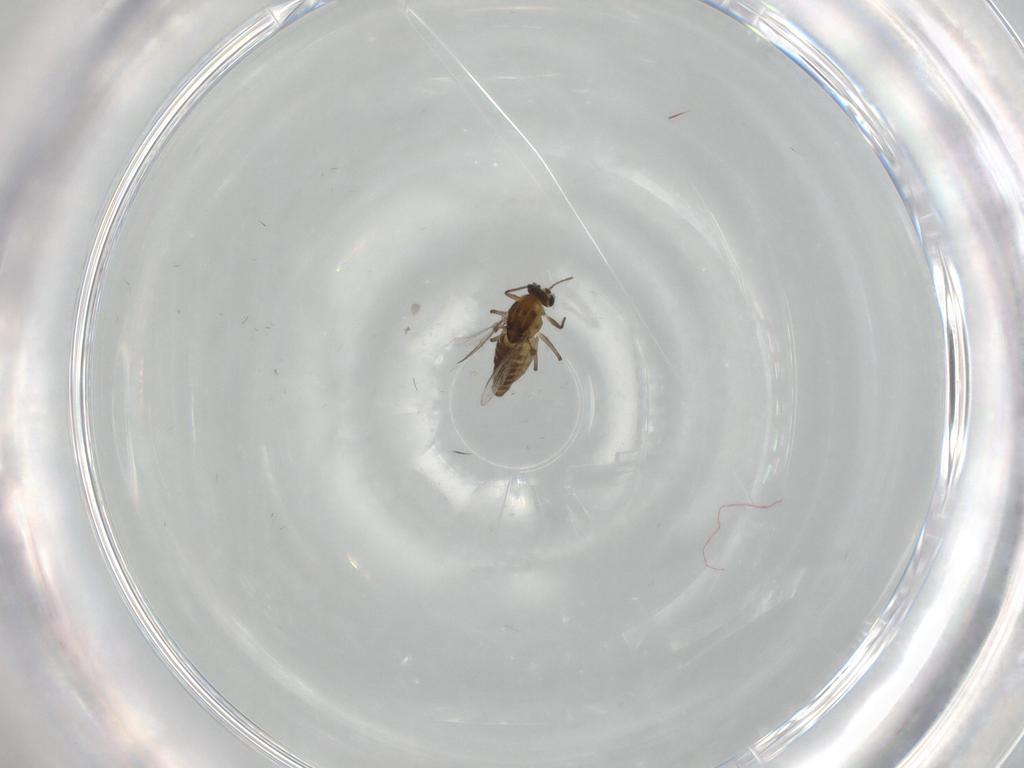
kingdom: Animalia
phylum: Arthropoda
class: Insecta
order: Diptera
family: Chironomidae
